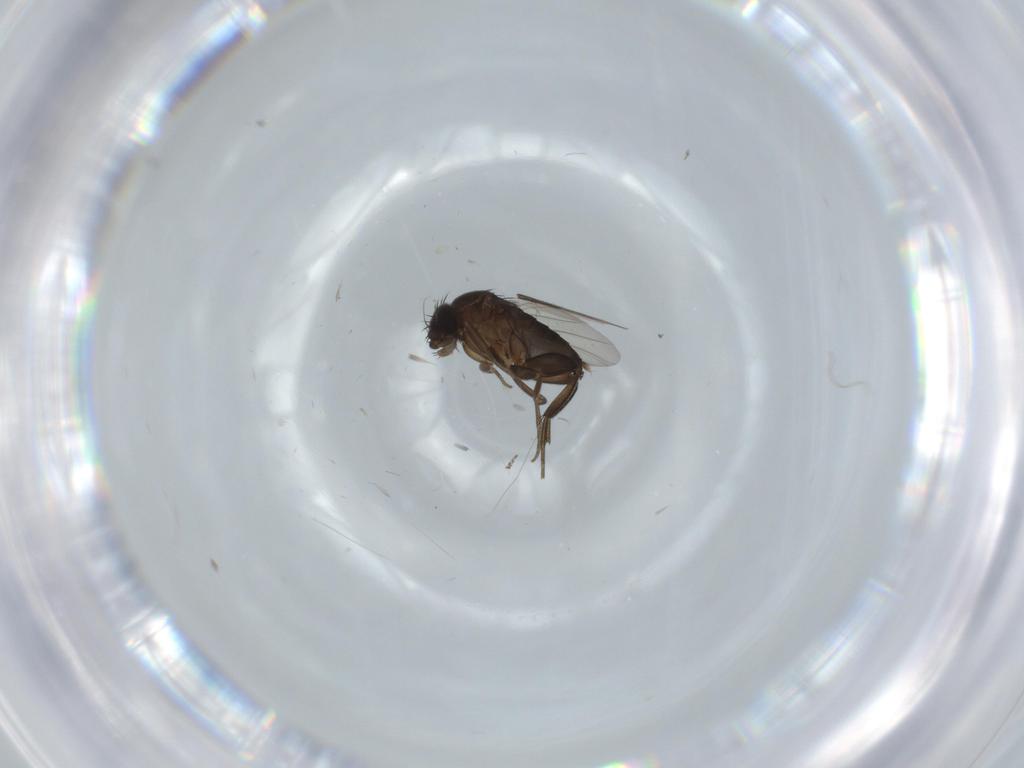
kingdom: Animalia
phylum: Arthropoda
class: Insecta
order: Diptera
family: Phoridae
